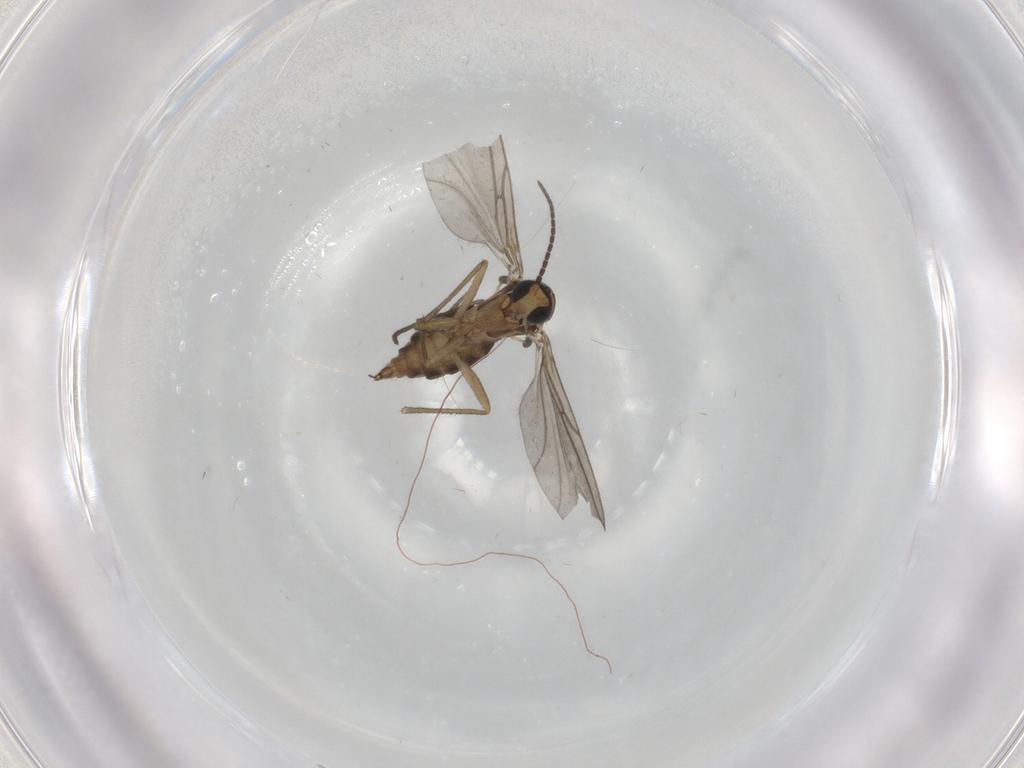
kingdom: Animalia
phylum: Arthropoda
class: Insecta
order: Diptera
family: Sciaridae
